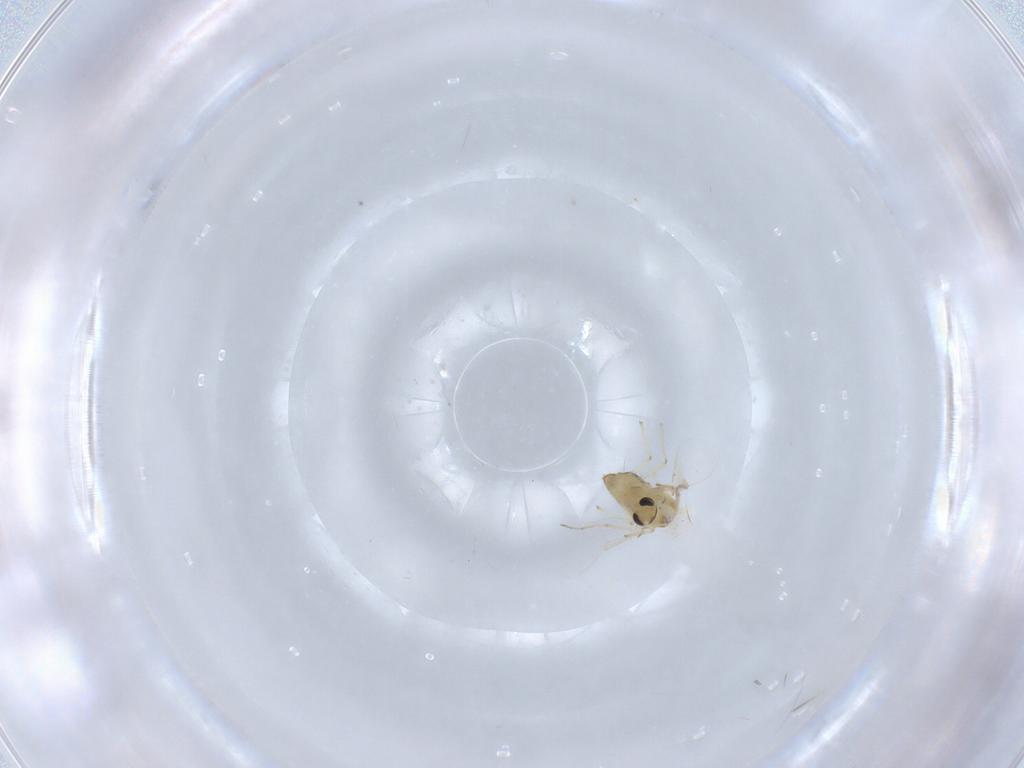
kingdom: Animalia
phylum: Arthropoda
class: Insecta
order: Diptera
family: Chironomidae
